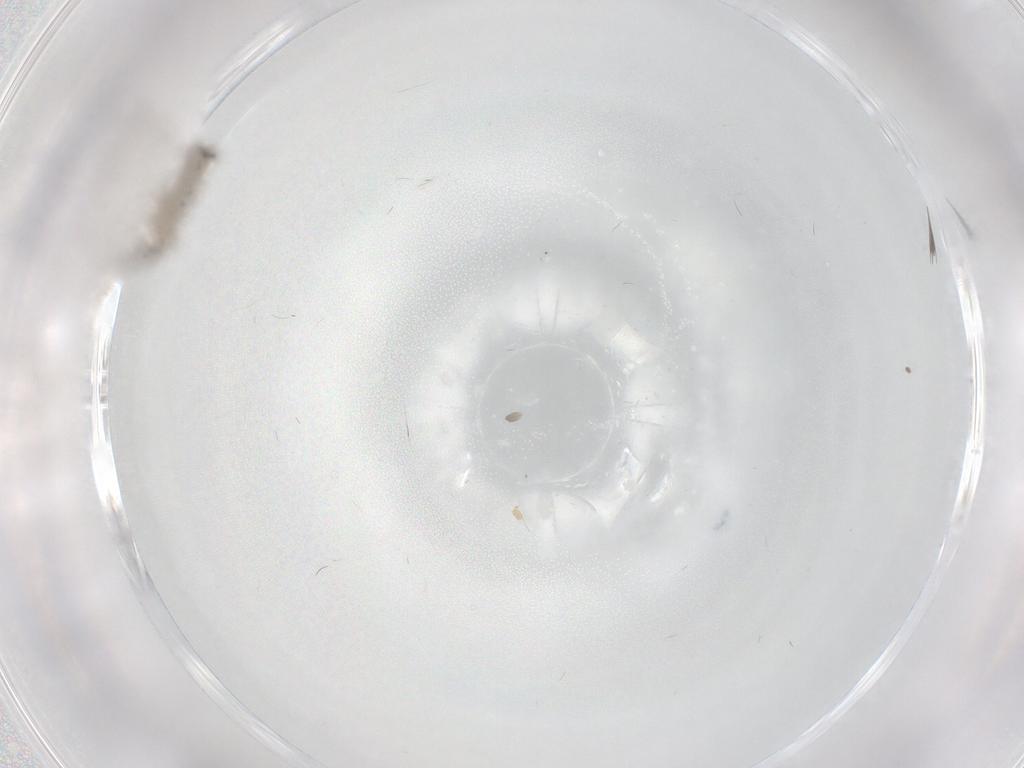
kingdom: Animalia
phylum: Arthropoda
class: Insecta
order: Diptera
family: Cecidomyiidae
